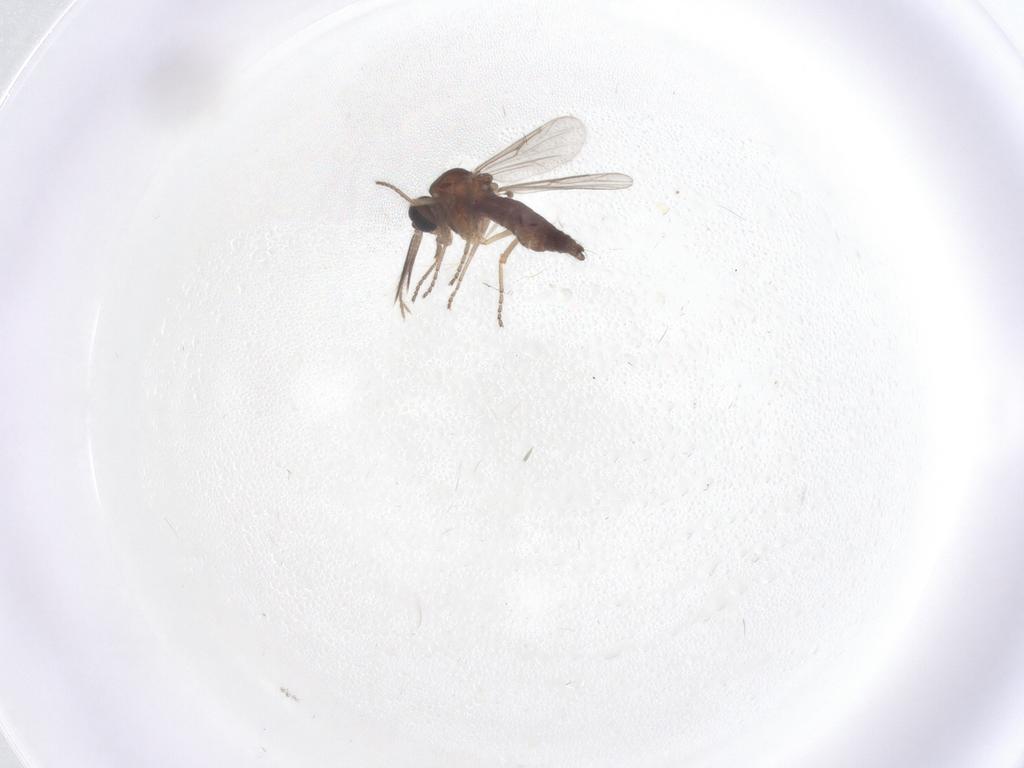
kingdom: Animalia
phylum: Arthropoda
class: Insecta
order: Diptera
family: Ceratopogonidae
